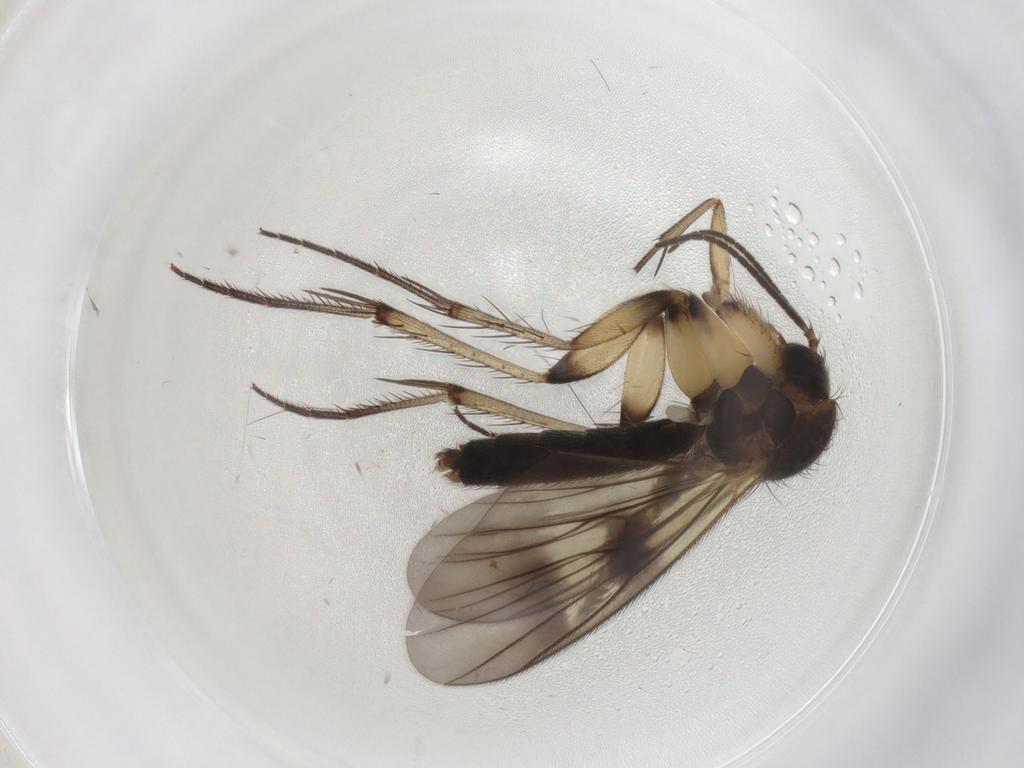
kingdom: Animalia
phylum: Arthropoda
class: Insecta
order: Diptera
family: Mycetophilidae
